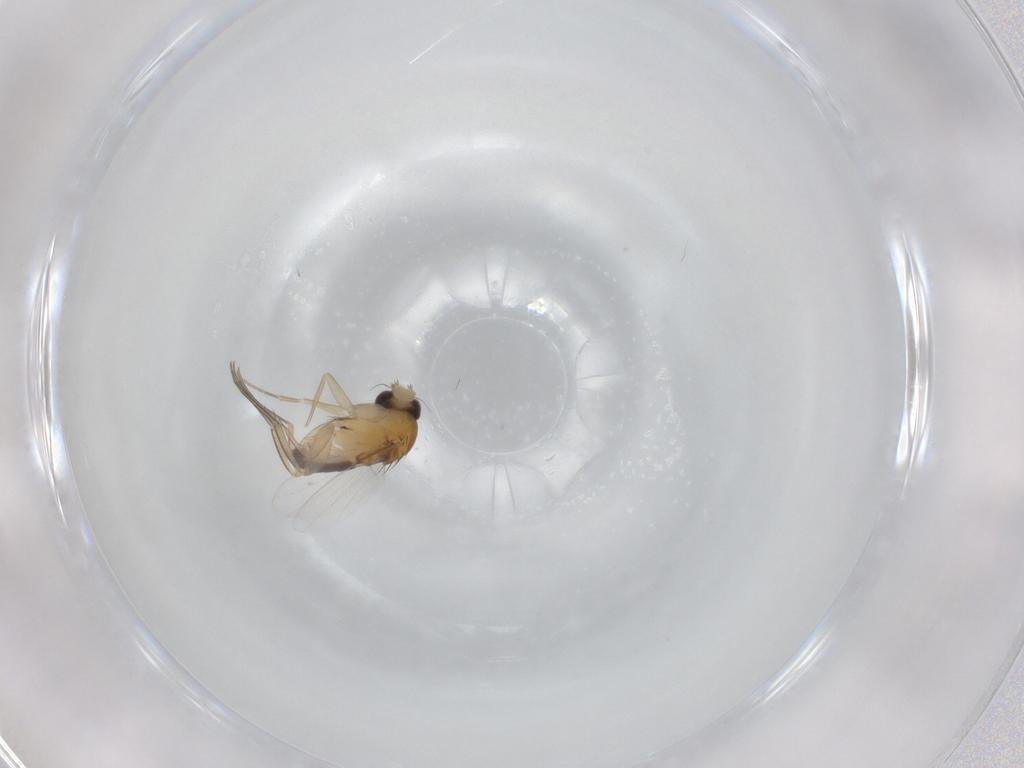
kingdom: Animalia
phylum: Arthropoda
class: Insecta
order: Diptera
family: Phoridae
